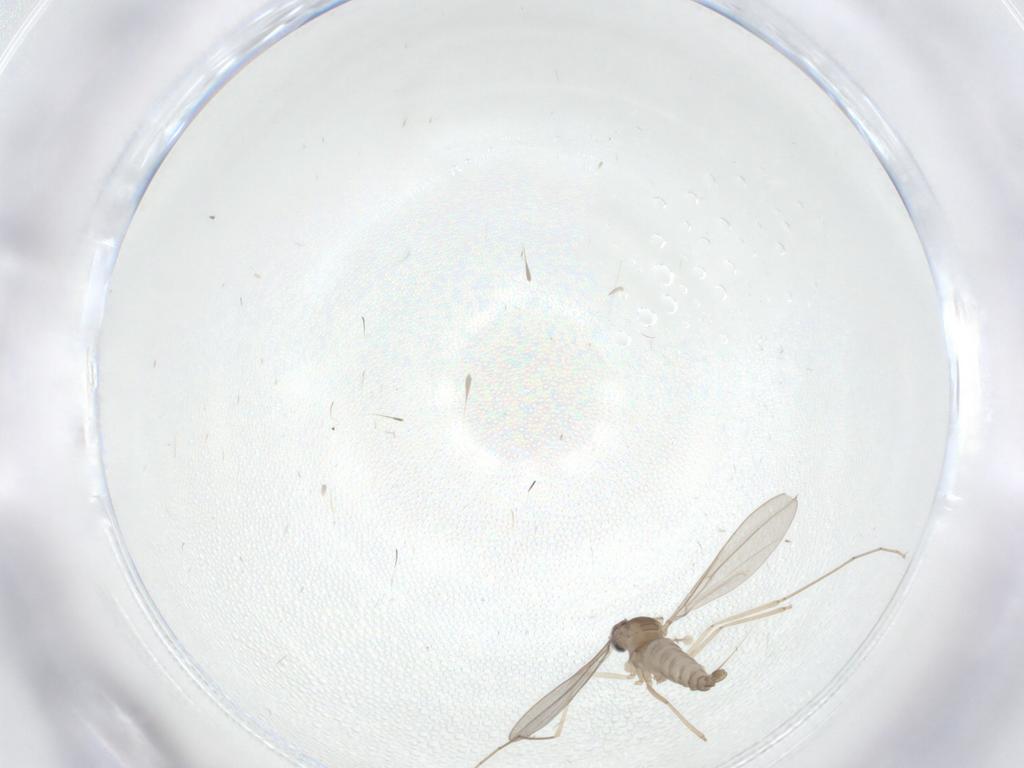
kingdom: Animalia
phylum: Arthropoda
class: Insecta
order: Diptera
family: Cecidomyiidae
